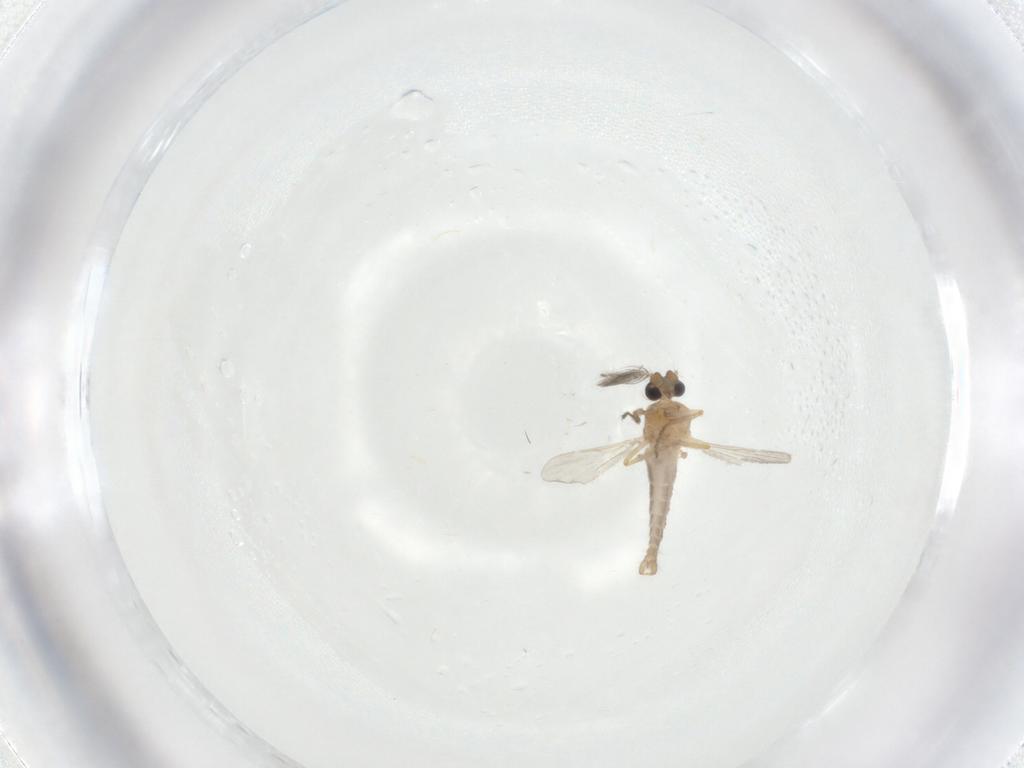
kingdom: Animalia
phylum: Arthropoda
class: Insecta
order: Diptera
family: Ceratopogonidae
